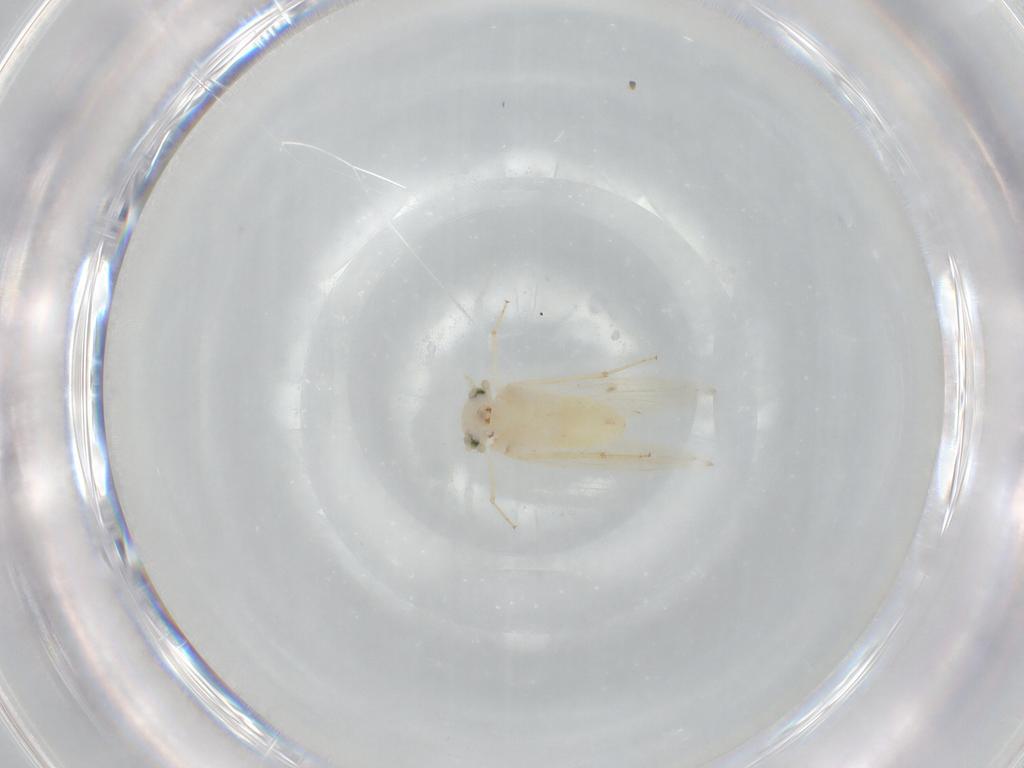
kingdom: Animalia
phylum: Arthropoda
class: Insecta
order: Psocodea
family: Lepidopsocidae
